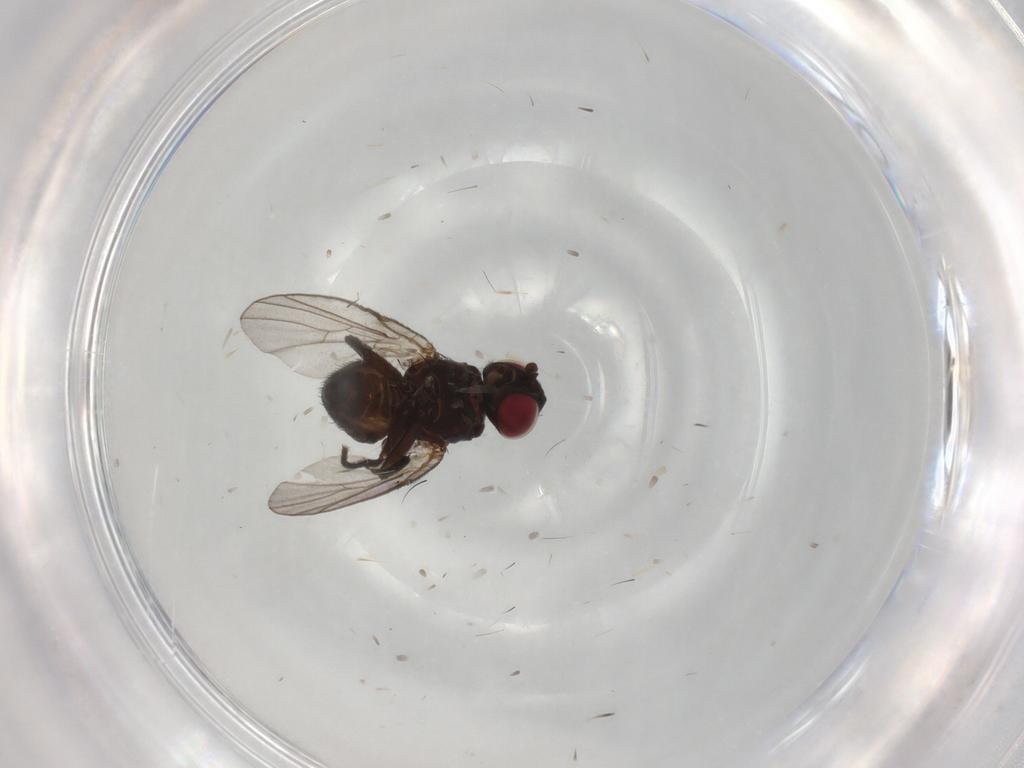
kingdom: Animalia
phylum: Arthropoda
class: Insecta
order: Diptera
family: Agromyzidae
